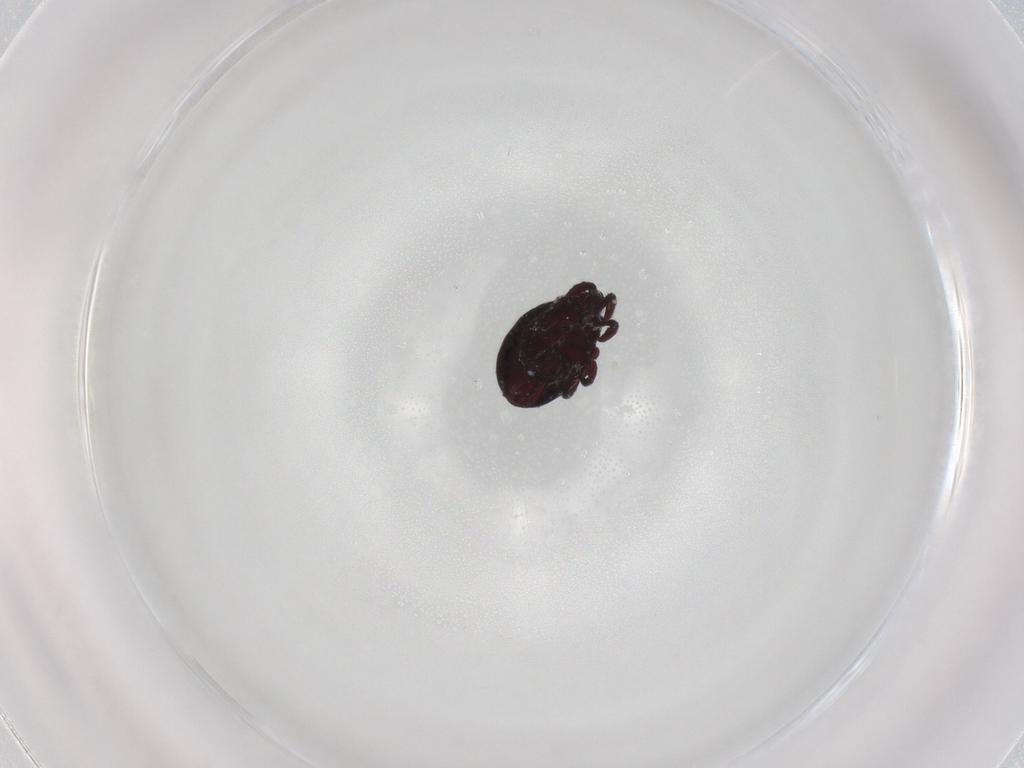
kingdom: Animalia
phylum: Arthropoda
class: Arachnida
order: Sarcoptiformes
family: Hermanniidae
